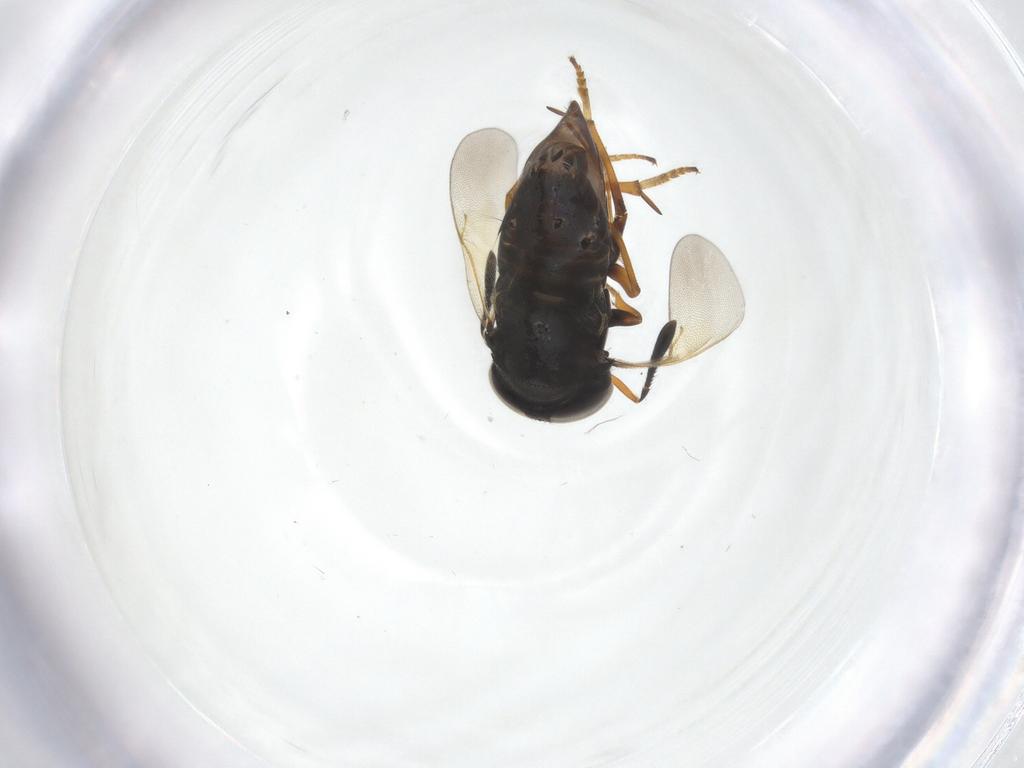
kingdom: Animalia
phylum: Arthropoda
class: Insecta
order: Hymenoptera
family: Encyrtidae
